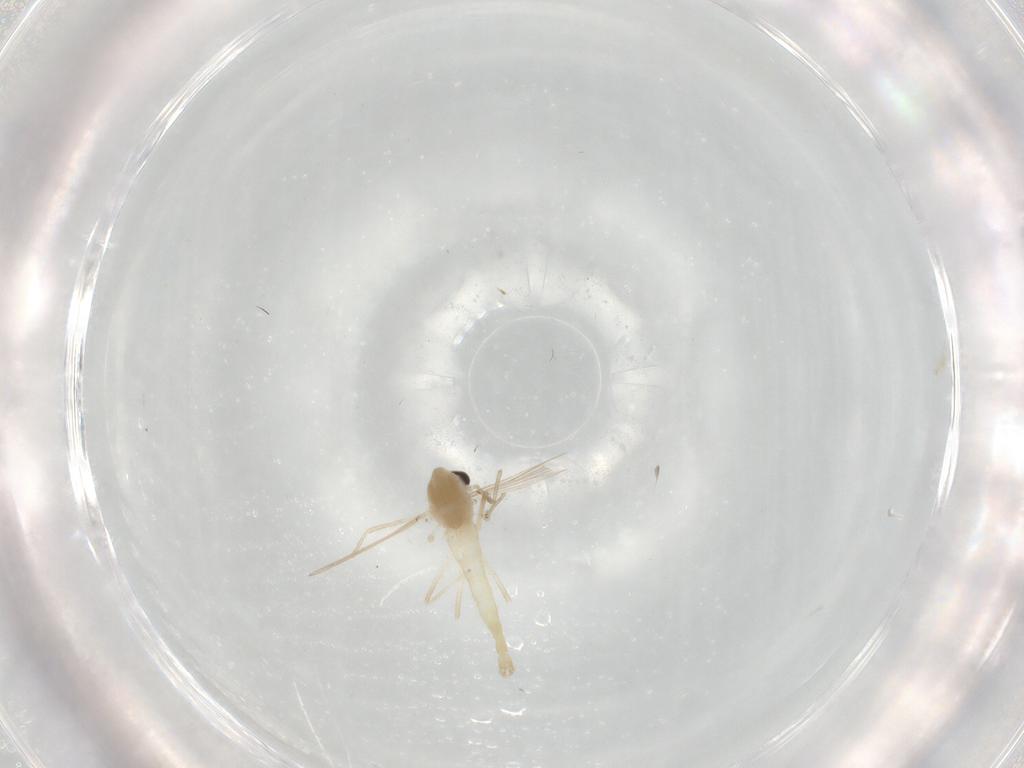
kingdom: Animalia
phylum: Arthropoda
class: Insecta
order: Diptera
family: Chironomidae
